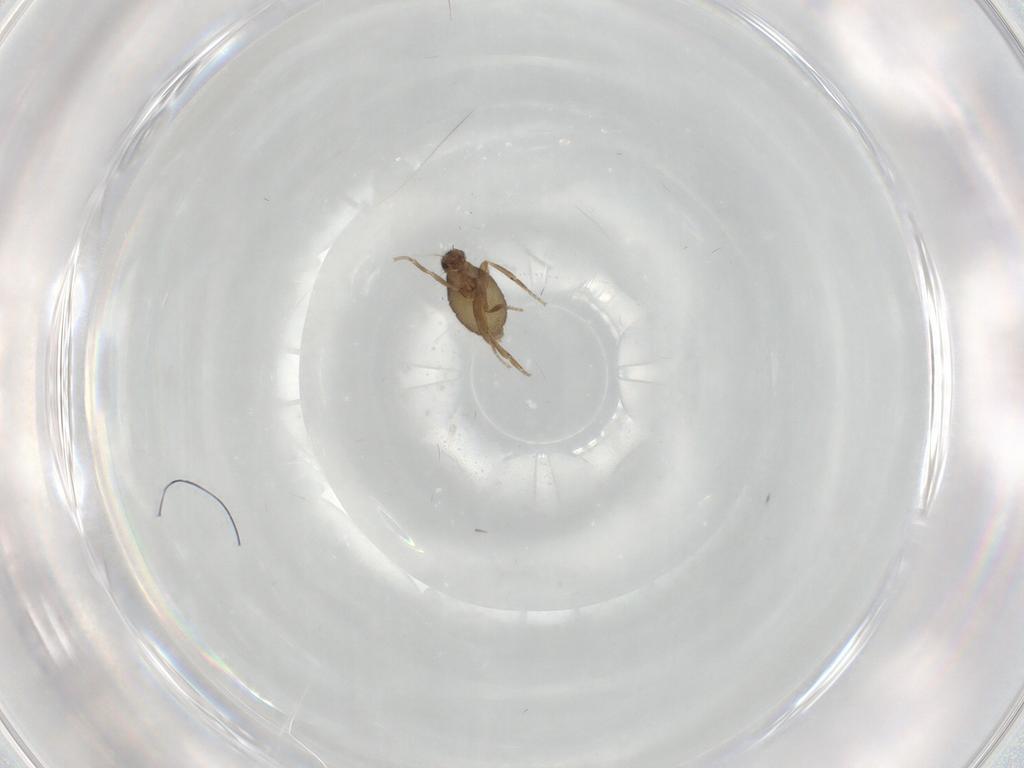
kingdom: Animalia
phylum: Arthropoda
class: Insecta
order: Diptera
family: Phoridae
